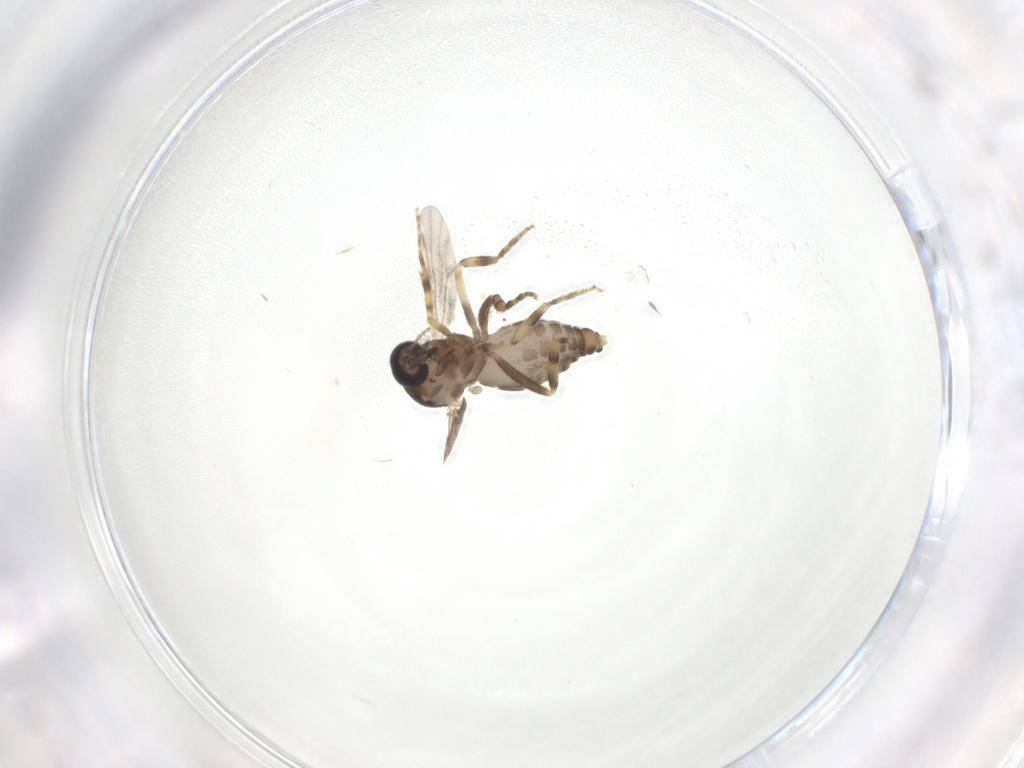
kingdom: Animalia
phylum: Arthropoda
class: Insecta
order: Diptera
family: Ceratopogonidae
